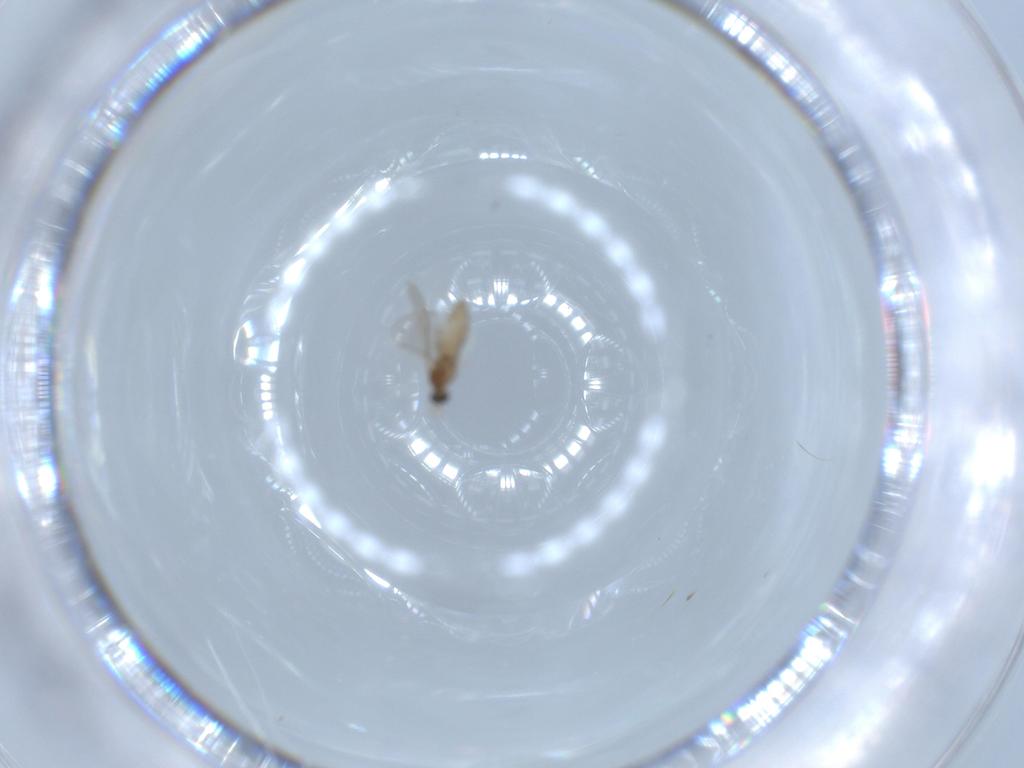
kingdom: Animalia
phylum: Arthropoda
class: Insecta
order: Diptera
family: Cecidomyiidae
